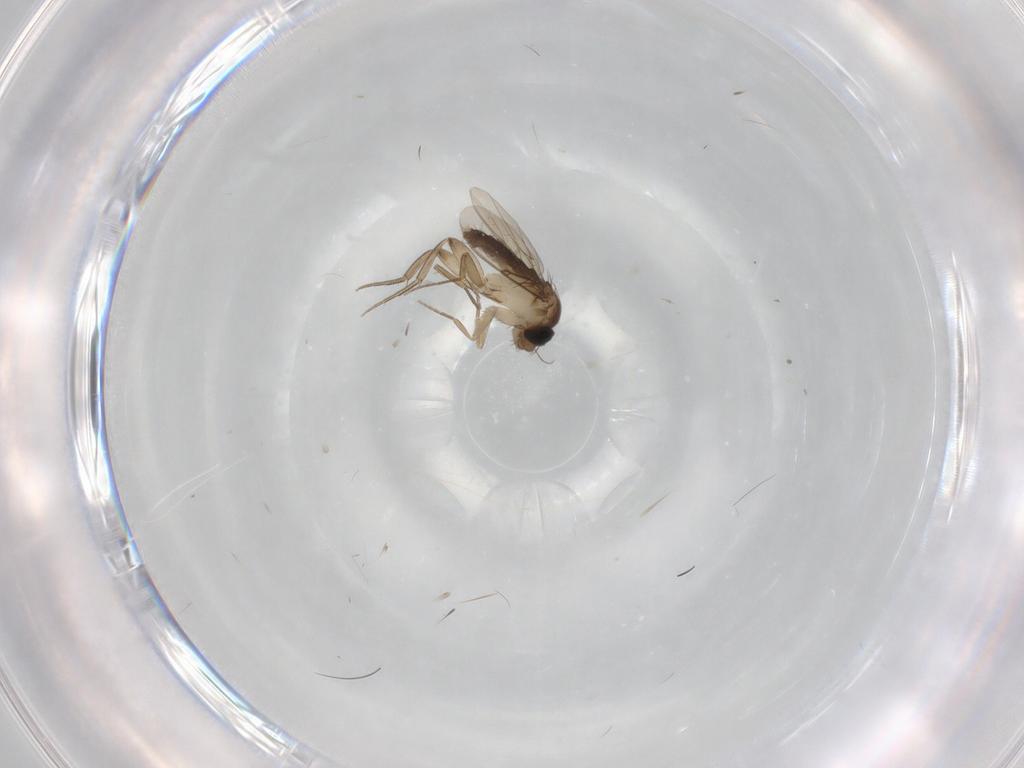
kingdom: Animalia
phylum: Arthropoda
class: Insecta
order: Diptera
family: Phoridae
